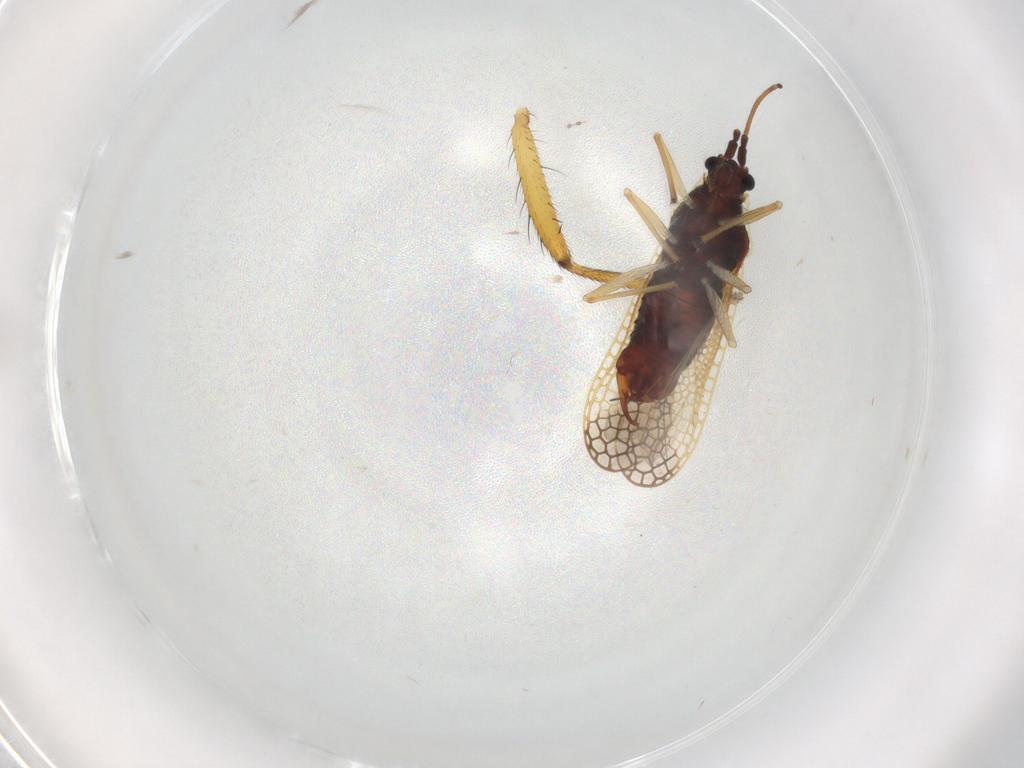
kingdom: Animalia
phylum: Arthropoda
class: Insecta
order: Hemiptera
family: Tingidae
